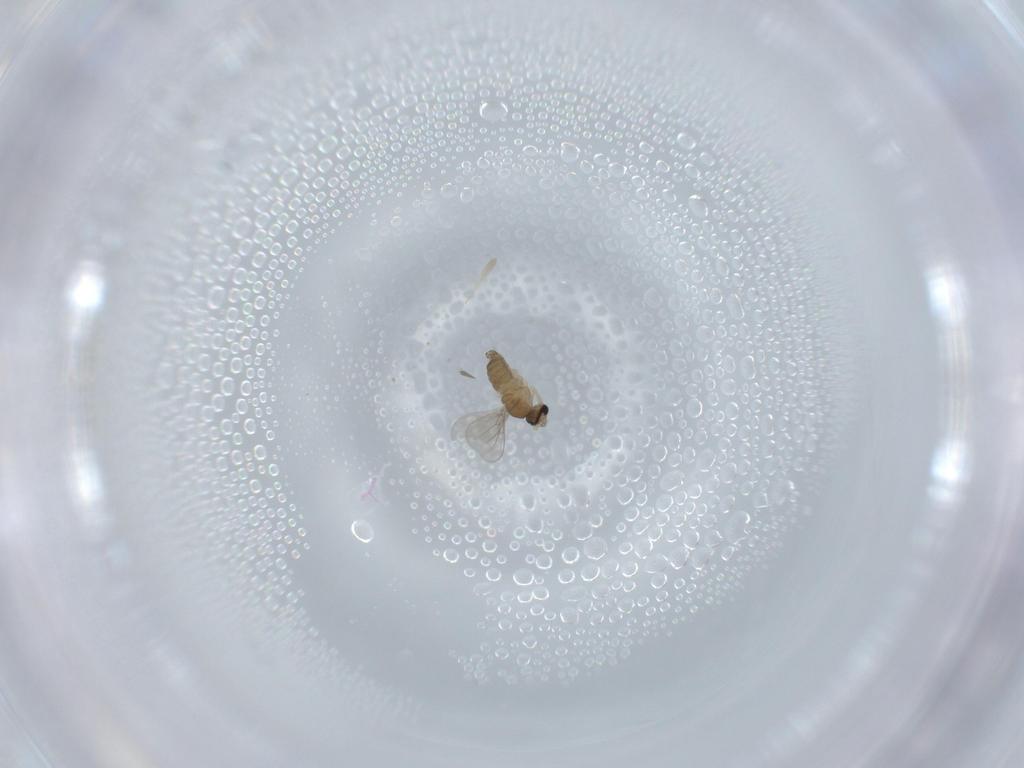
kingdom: Animalia
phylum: Arthropoda
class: Insecta
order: Diptera
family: Cecidomyiidae
